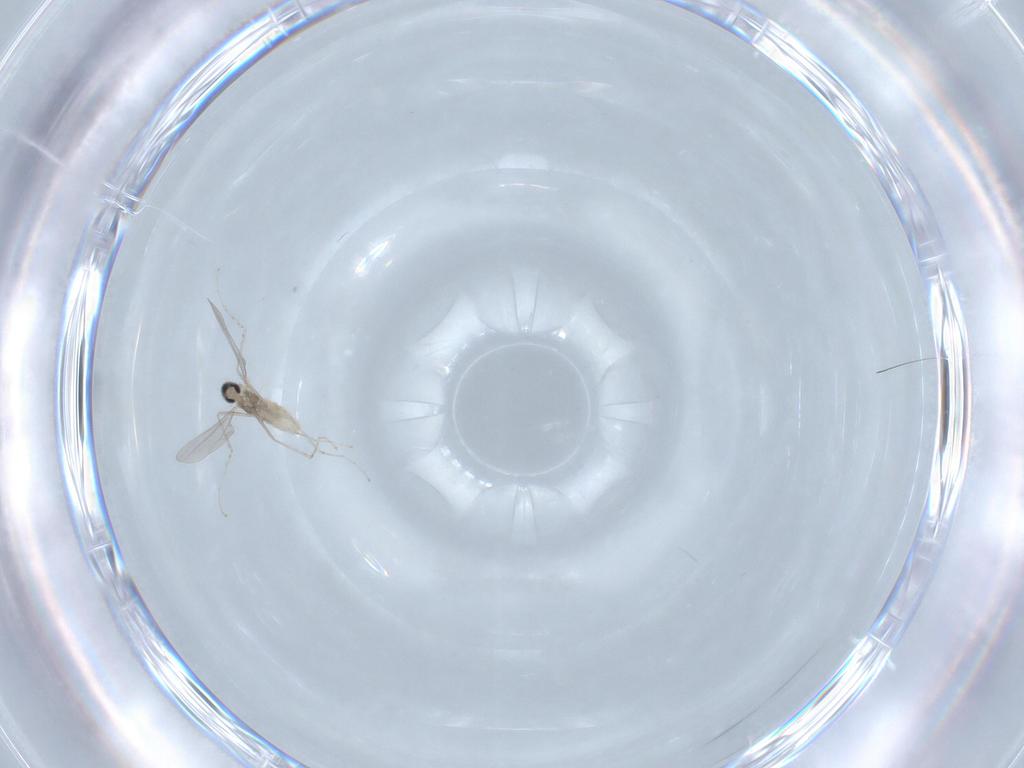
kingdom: Animalia
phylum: Arthropoda
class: Insecta
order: Diptera
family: Cecidomyiidae
